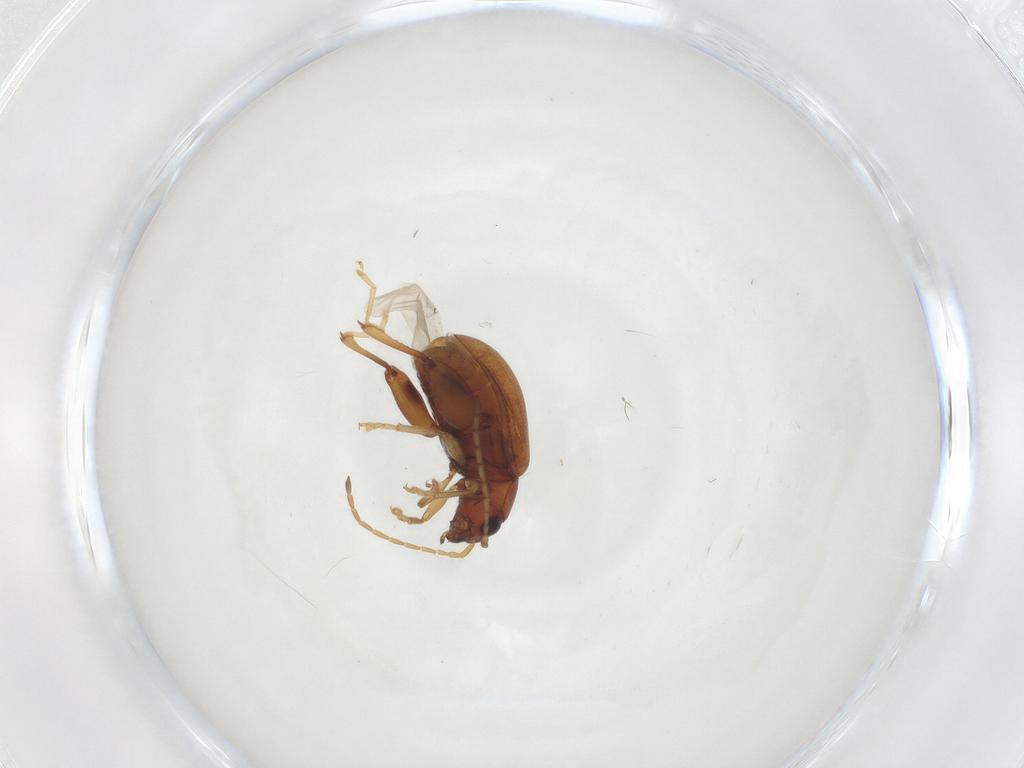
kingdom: Animalia
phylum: Arthropoda
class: Insecta
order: Coleoptera
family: Chrysomelidae
